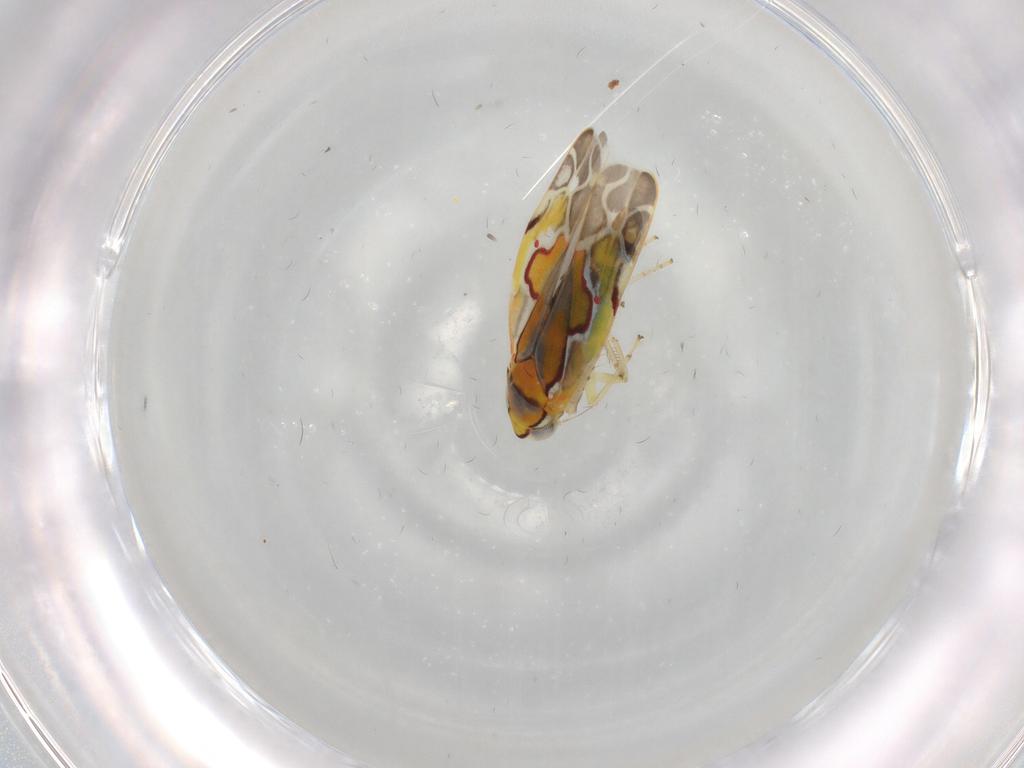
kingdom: Animalia
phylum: Arthropoda
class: Insecta
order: Hemiptera
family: Cicadellidae
